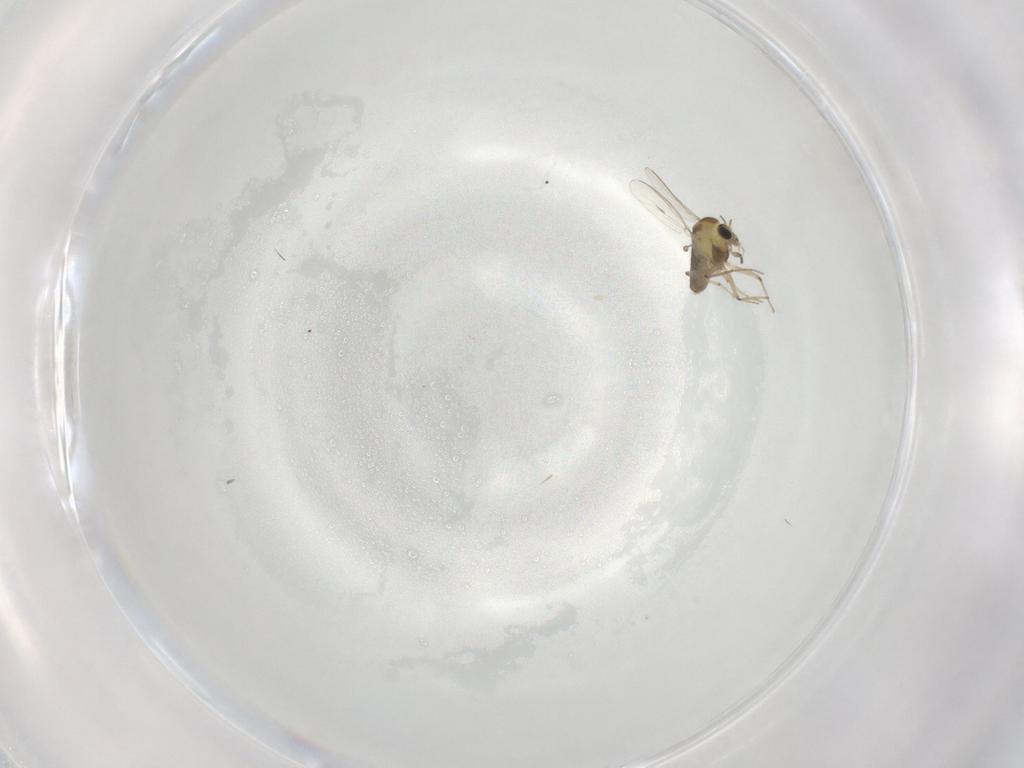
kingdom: Animalia
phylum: Arthropoda
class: Insecta
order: Diptera
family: Chironomidae
